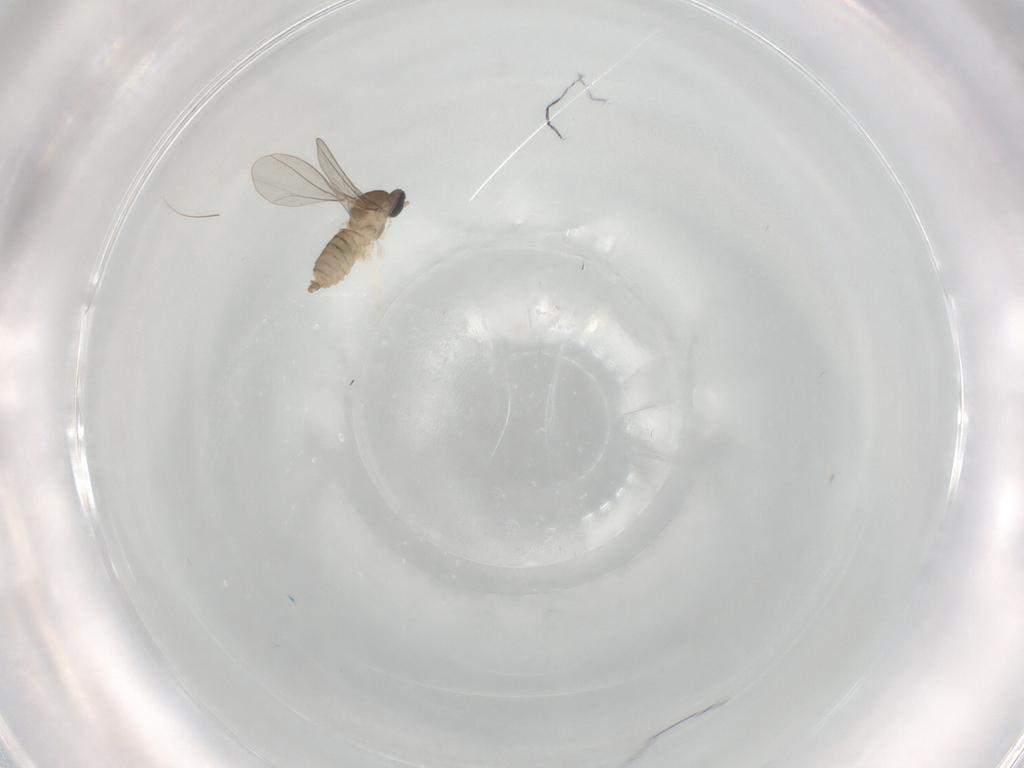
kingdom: Animalia
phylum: Arthropoda
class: Insecta
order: Diptera
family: Cecidomyiidae
